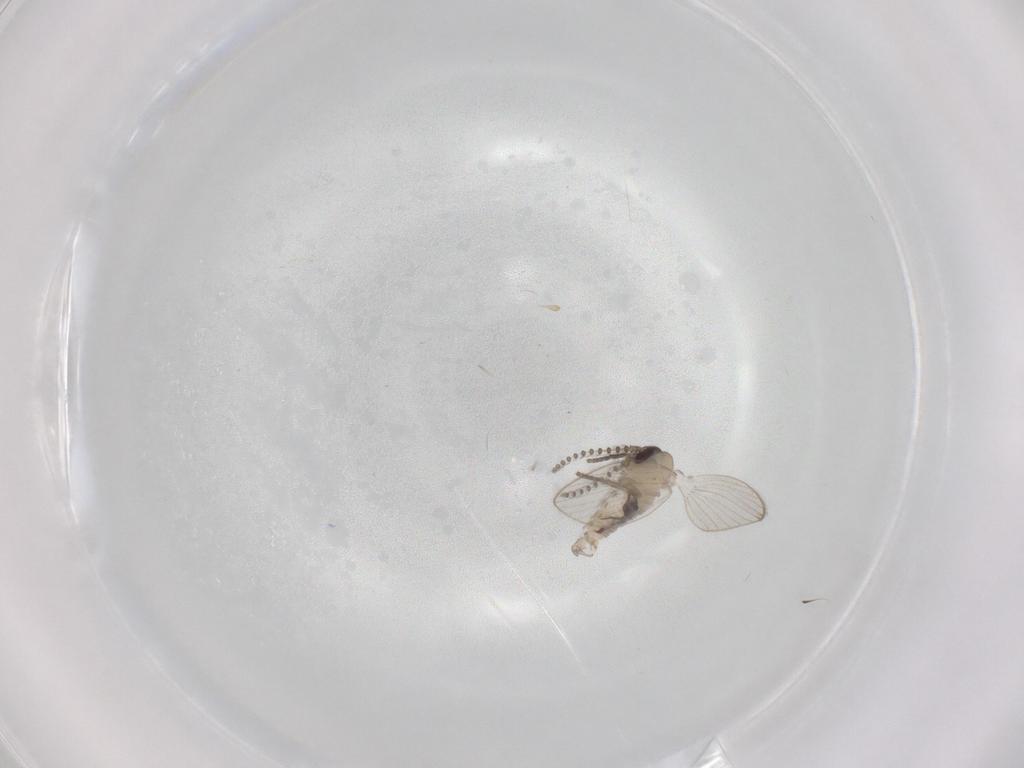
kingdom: Animalia
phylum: Arthropoda
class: Insecta
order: Diptera
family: Psychodidae
